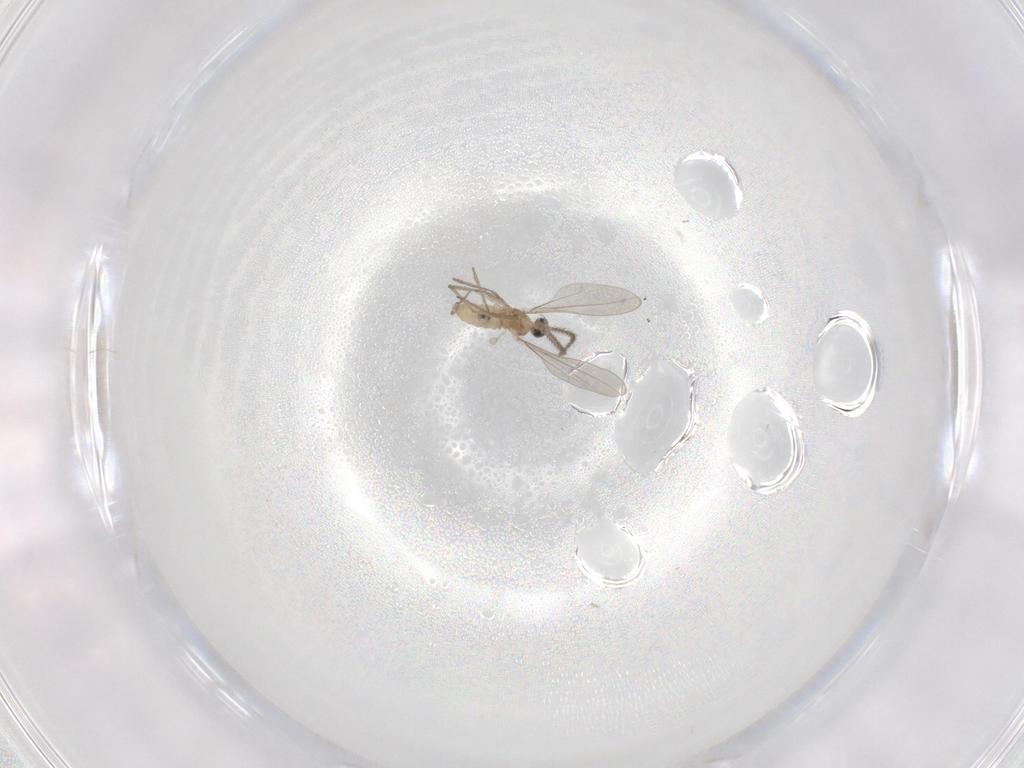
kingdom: Animalia
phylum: Arthropoda
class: Insecta
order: Diptera
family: Cecidomyiidae
